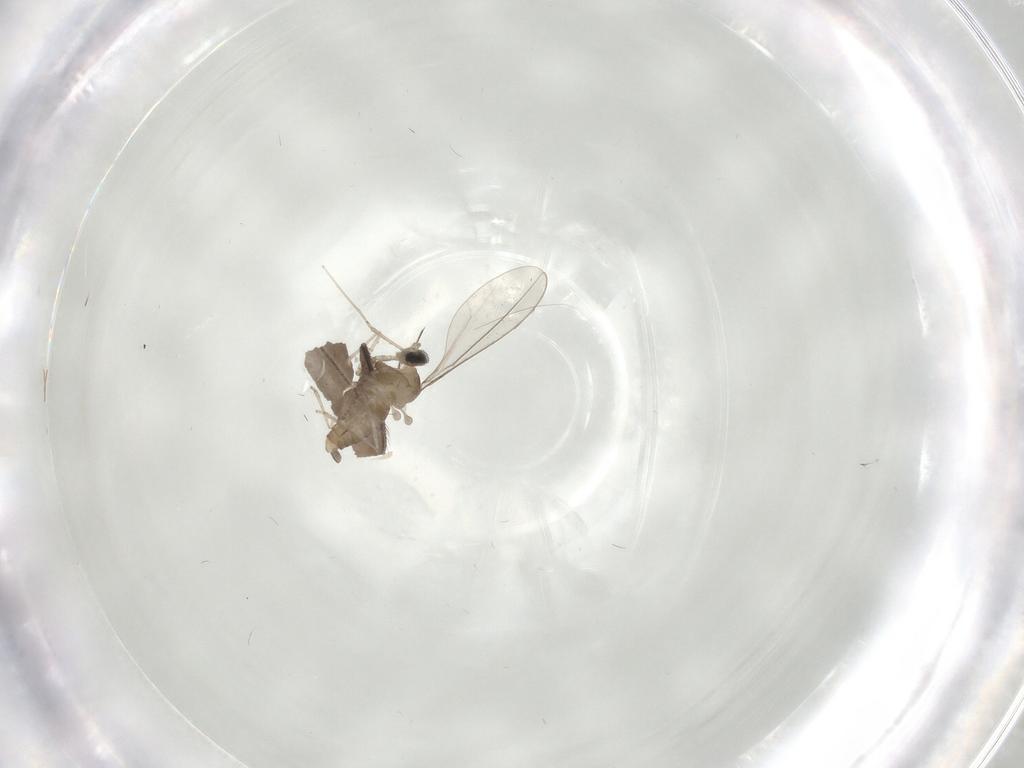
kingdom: Animalia
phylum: Arthropoda
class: Insecta
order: Diptera
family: Cecidomyiidae
